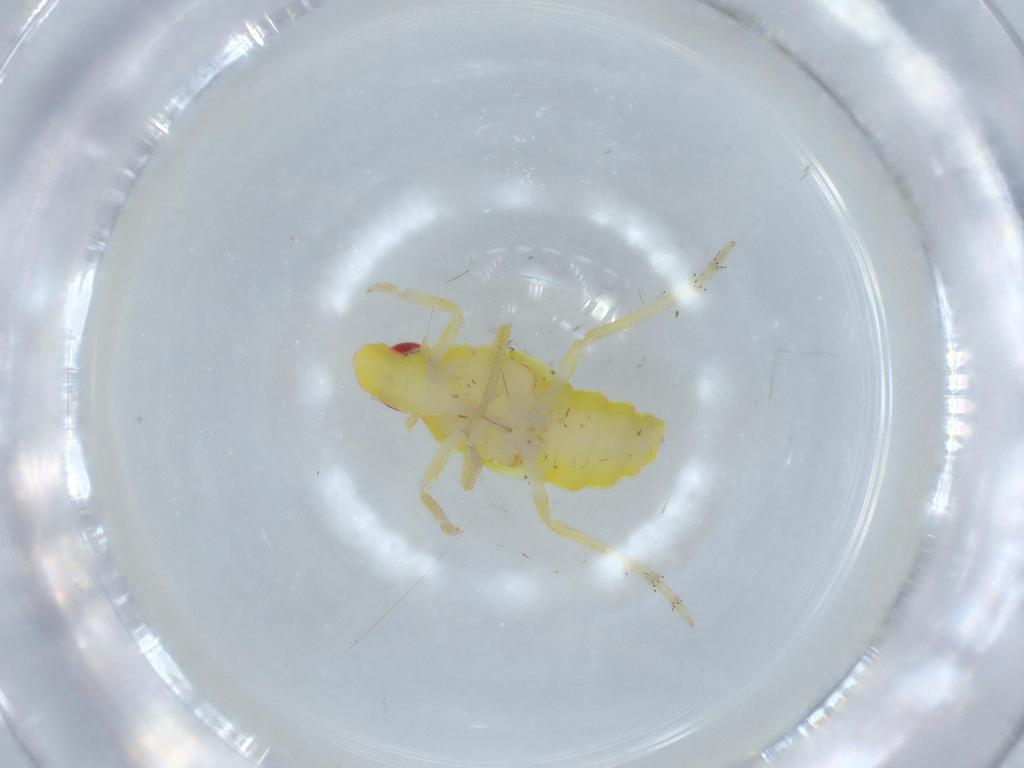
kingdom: Animalia
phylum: Arthropoda
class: Insecta
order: Hemiptera
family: Tropiduchidae
